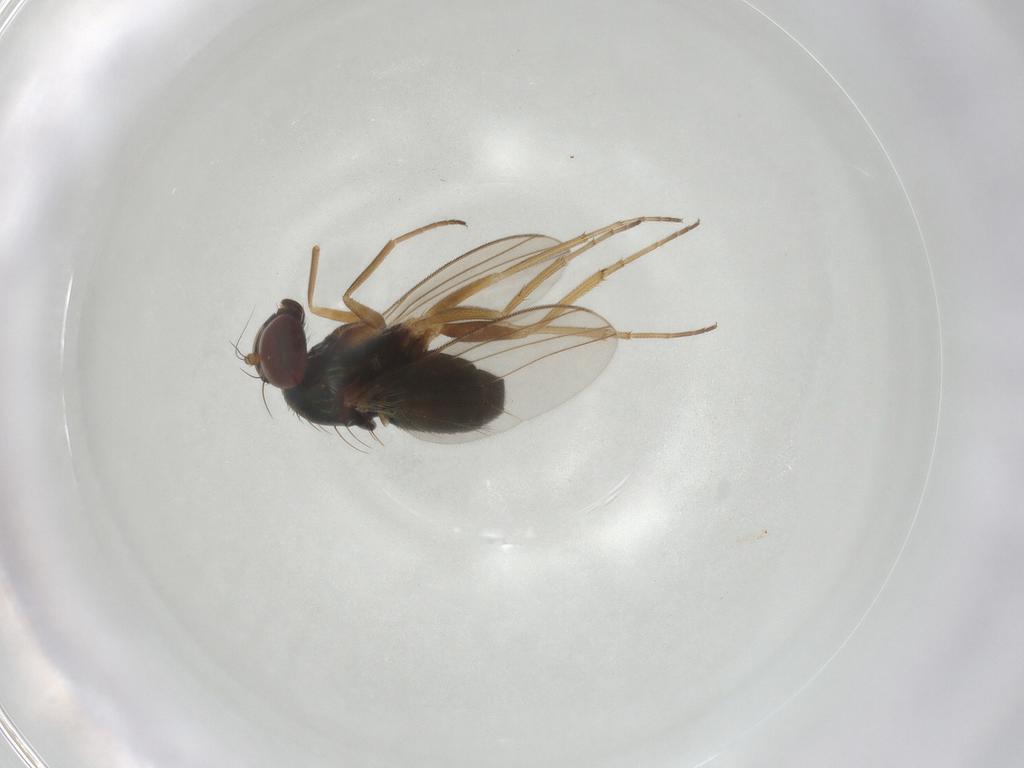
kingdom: Animalia
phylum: Arthropoda
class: Insecta
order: Diptera
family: Dolichopodidae
